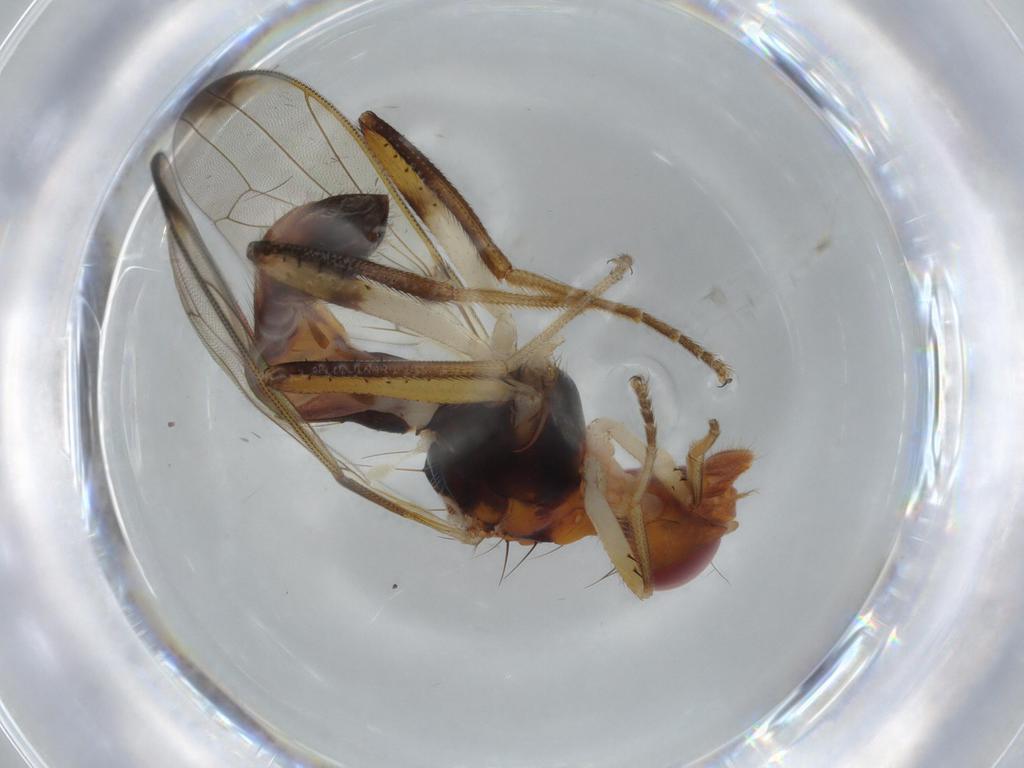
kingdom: Animalia
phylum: Arthropoda
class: Insecta
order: Diptera
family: Richardiidae
